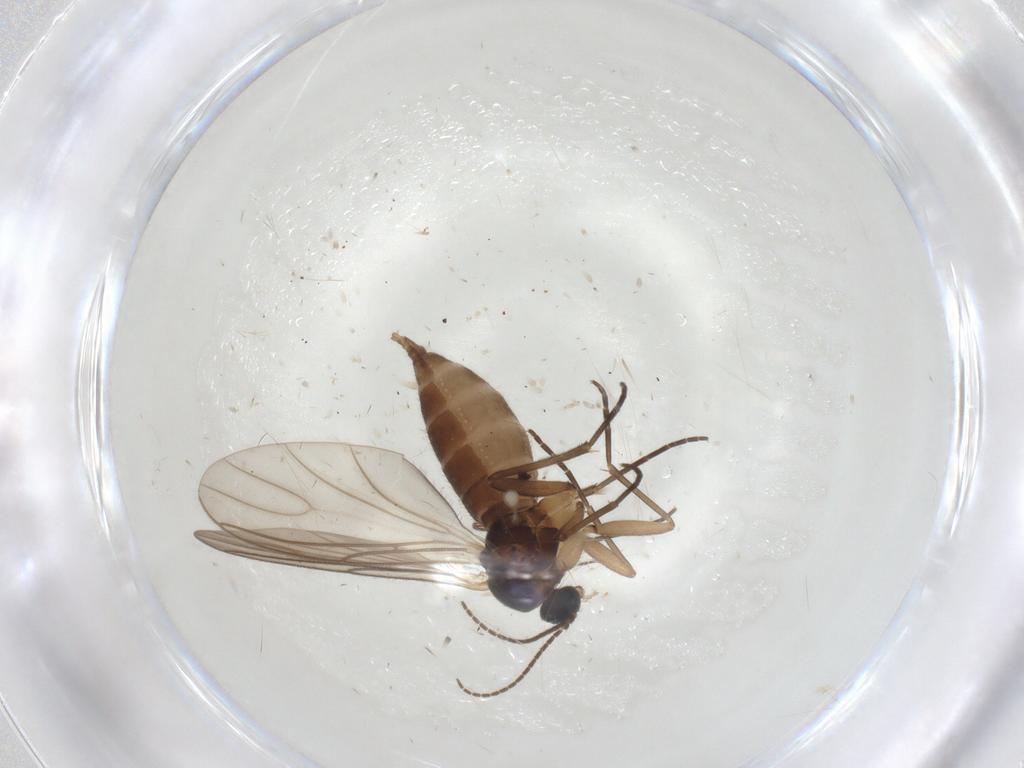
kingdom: Animalia
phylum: Arthropoda
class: Insecta
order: Diptera
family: Sciaridae
